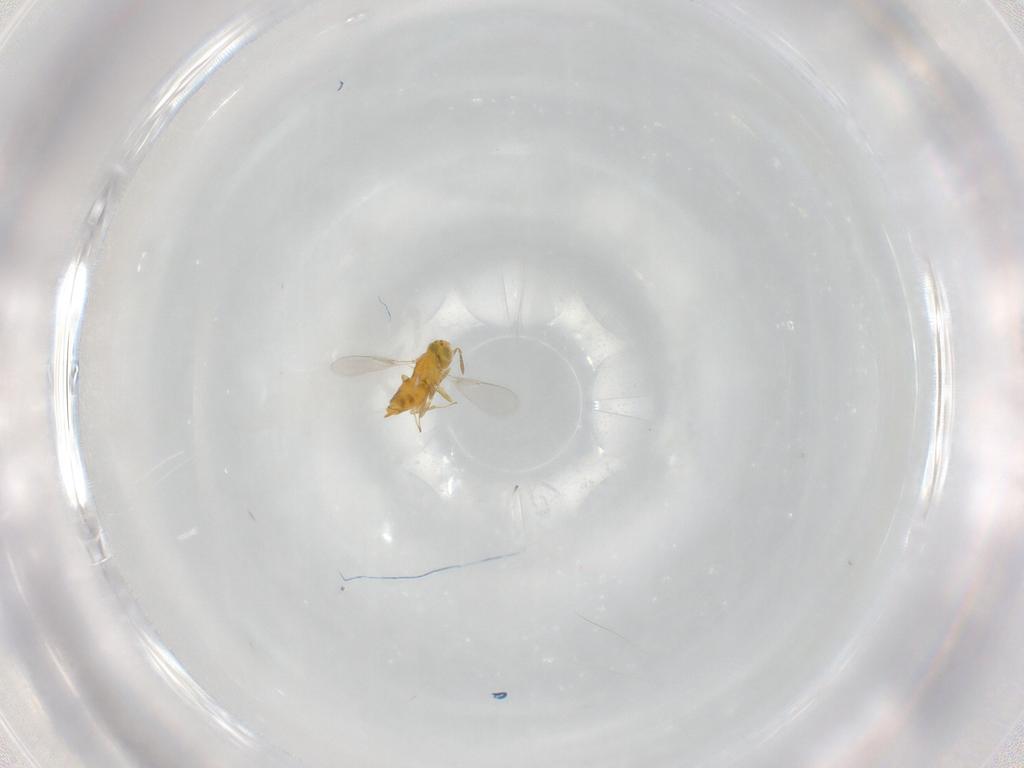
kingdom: Animalia
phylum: Arthropoda
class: Insecta
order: Hymenoptera
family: Aphelinidae
